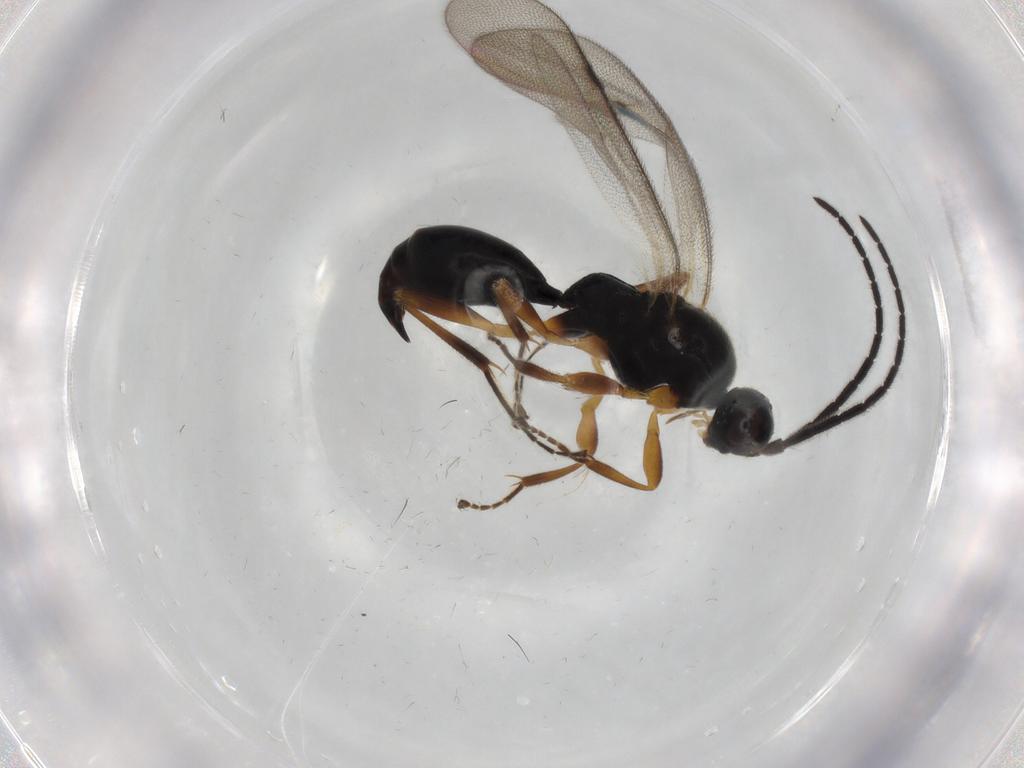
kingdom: Animalia
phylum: Arthropoda
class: Insecta
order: Hymenoptera
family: Proctotrupidae
